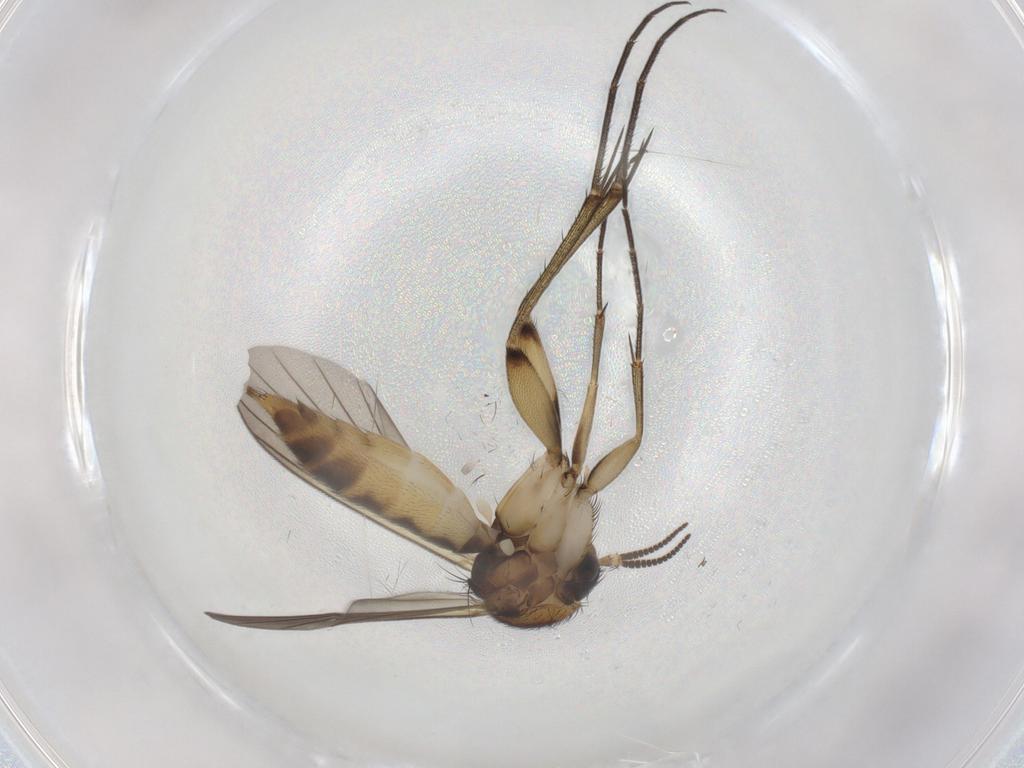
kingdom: Animalia
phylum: Arthropoda
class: Insecta
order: Diptera
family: Mycetophilidae
